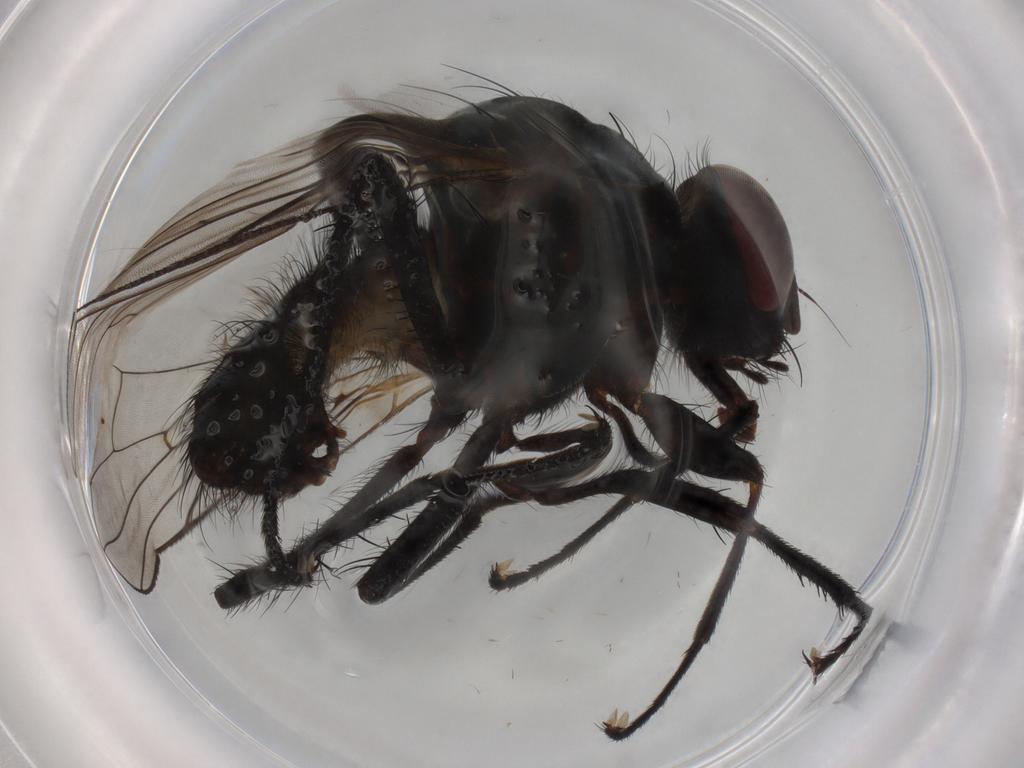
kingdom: Animalia
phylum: Arthropoda
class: Insecta
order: Diptera
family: Anthomyiidae
